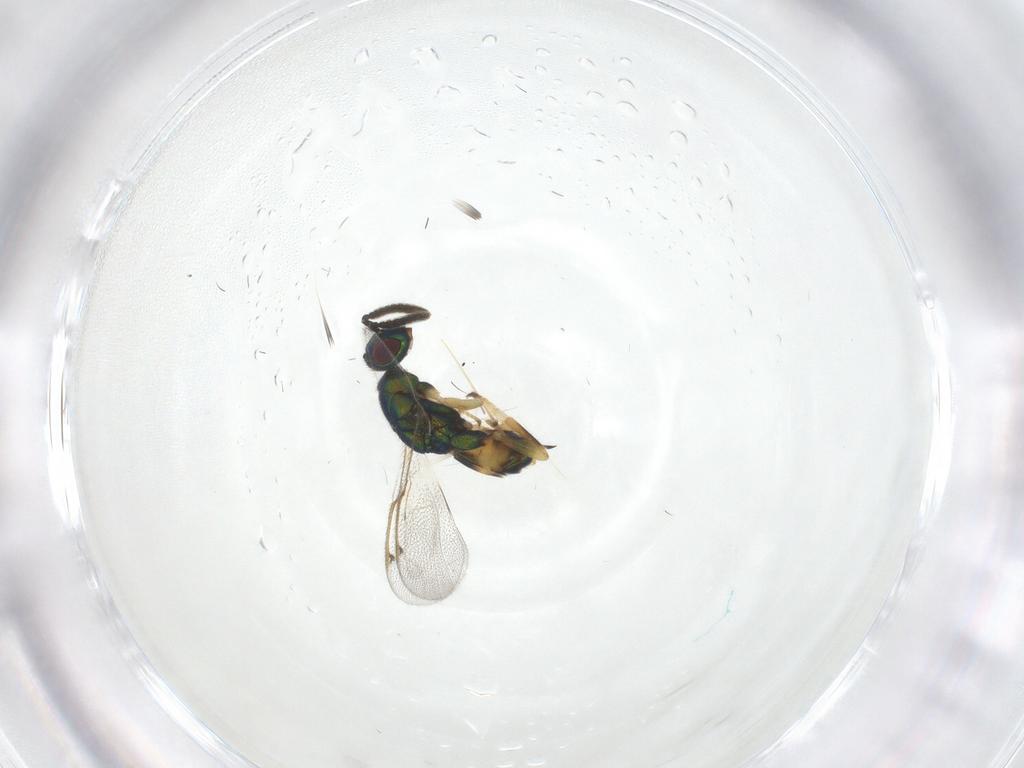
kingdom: Animalia
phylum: Arthropoda
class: Insecta
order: Hymenoptera
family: Torymidae
